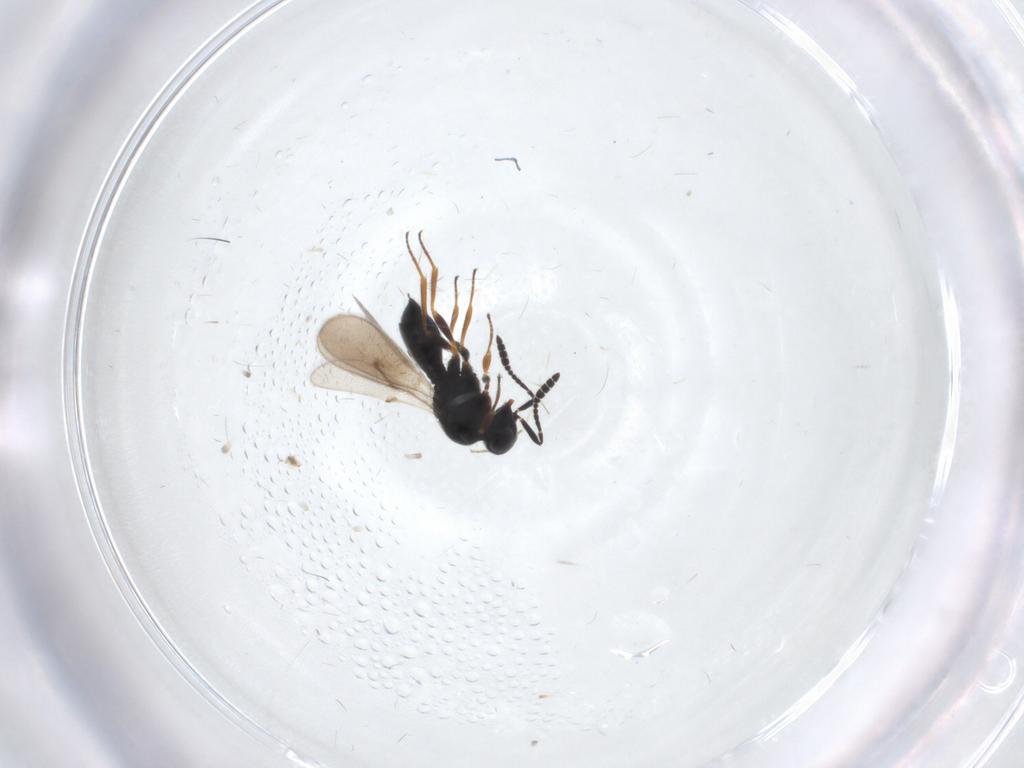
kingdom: Animalia
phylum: Arthropoda
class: Insecta
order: Hymenoptera
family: Scelionidae
